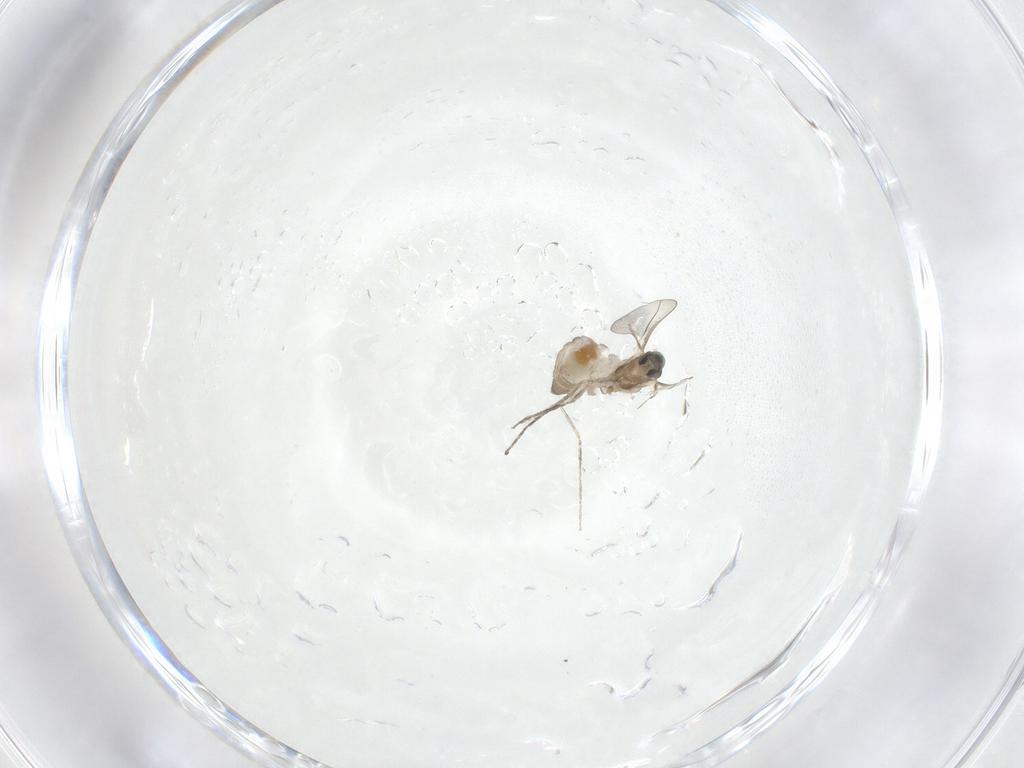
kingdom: Animalia
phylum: Arthropoda
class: Insecta
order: Diptera
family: Cecidomyiidae
